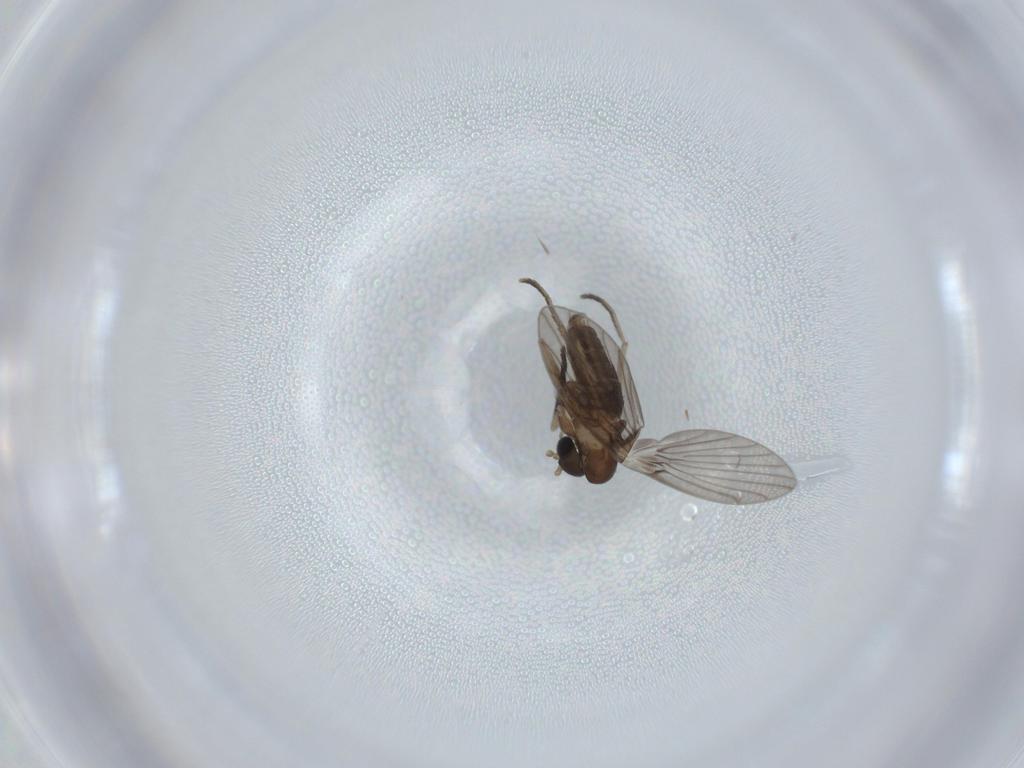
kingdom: Animalia
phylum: Arthropoda
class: Insecta
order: Diptera
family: Psychodidae
